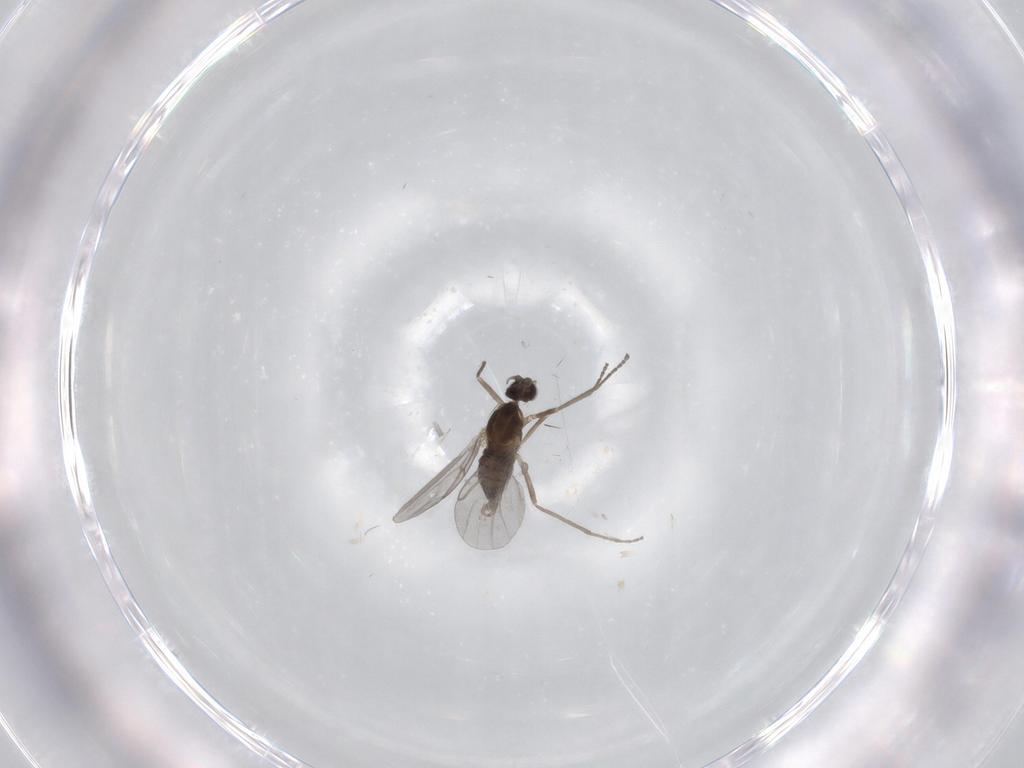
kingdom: Animalia
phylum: Arthropoda
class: Insecta
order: Diptera
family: Cecidomyiidae
